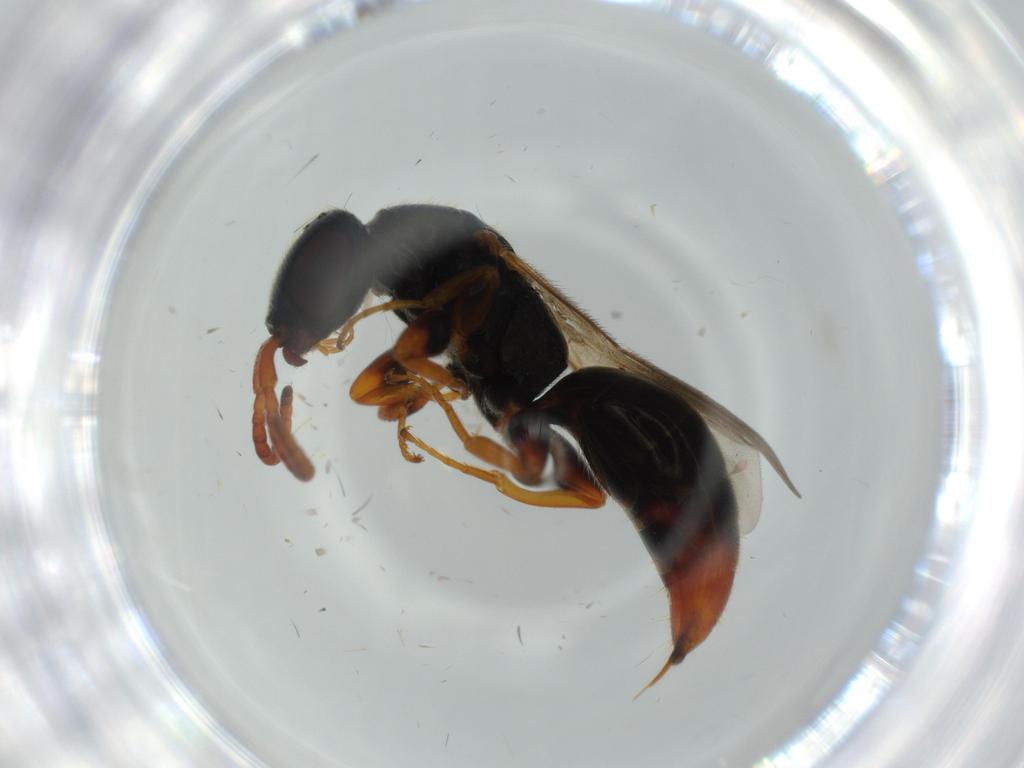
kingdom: Animalia
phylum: Arthropoda
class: Insecta
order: Hymenoptera
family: Bethylidae
